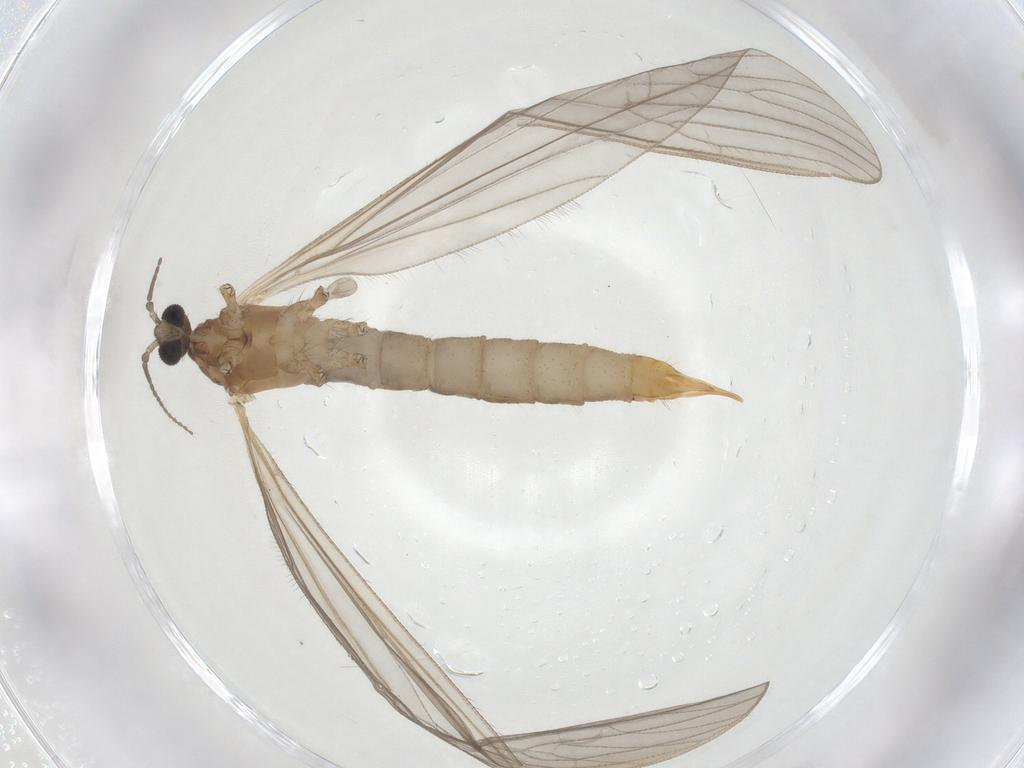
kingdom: Animalia
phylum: Arthropoda
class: Insecta
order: Diptera
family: Limoniidae
